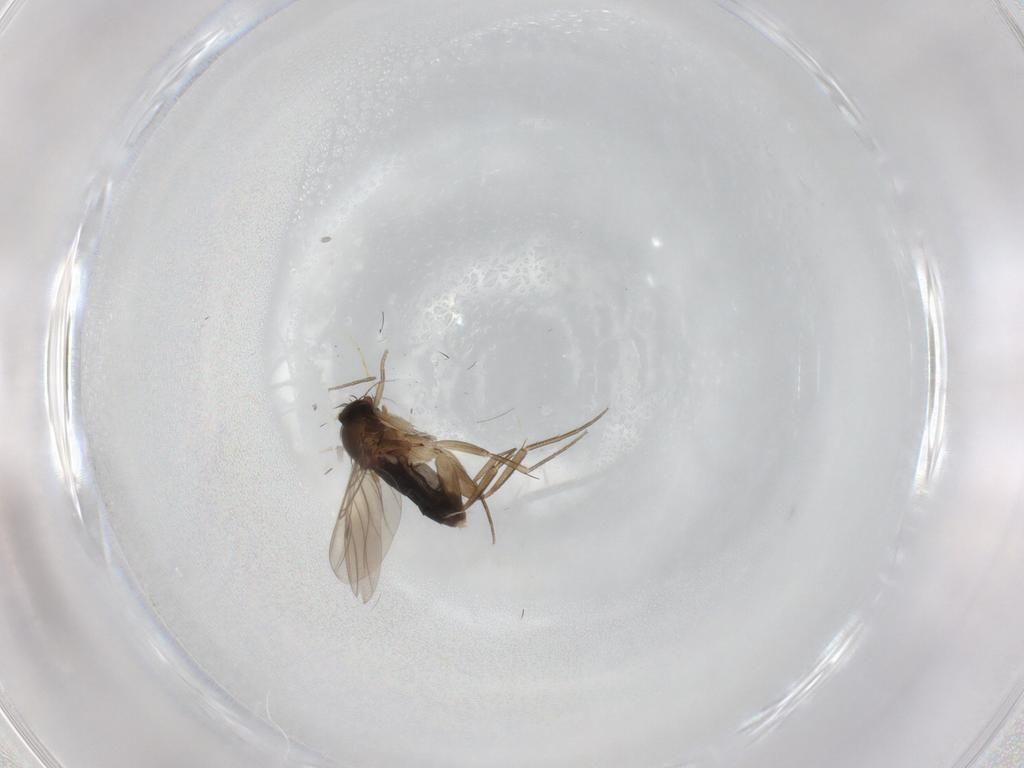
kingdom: Animalia
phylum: Arthropoda
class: Insecta
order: Diptera
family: Phoridae
